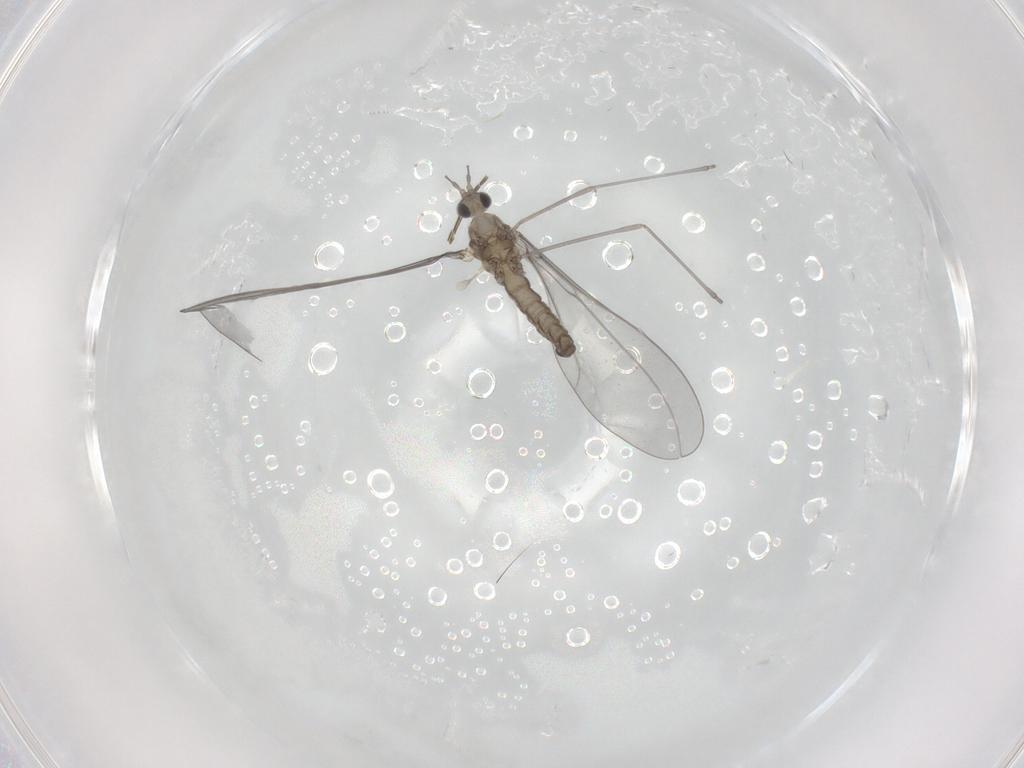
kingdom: Animalia
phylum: Arthropoda
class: Insecta
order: Diptera
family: Cecidomyiidae
